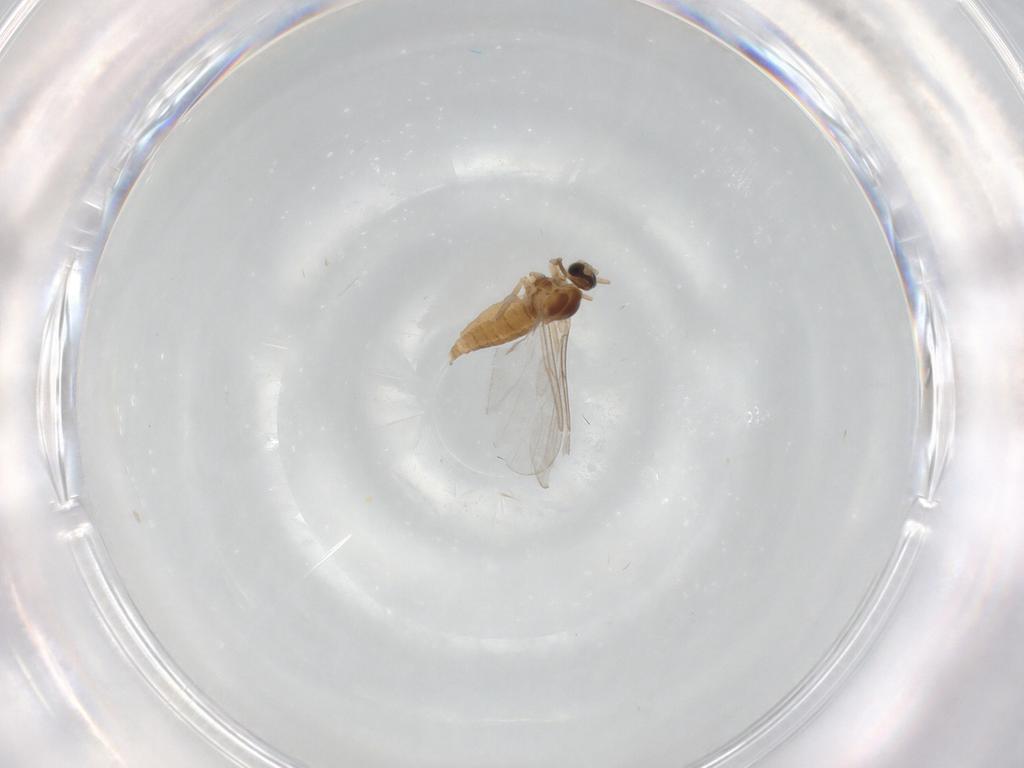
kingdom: Animalia
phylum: Arthropoda
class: Insecta
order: Diptera
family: Cecidomyiidae
